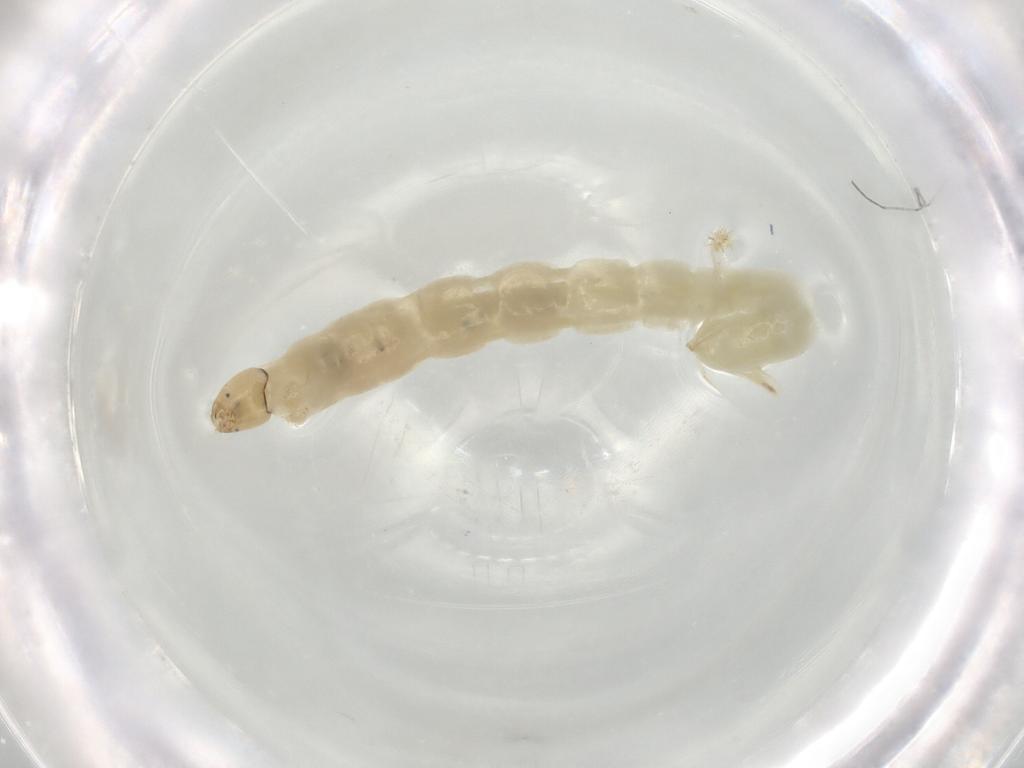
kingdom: Animalia
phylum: Arthropoda
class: Insecta
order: Diptera
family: Chironomidae
